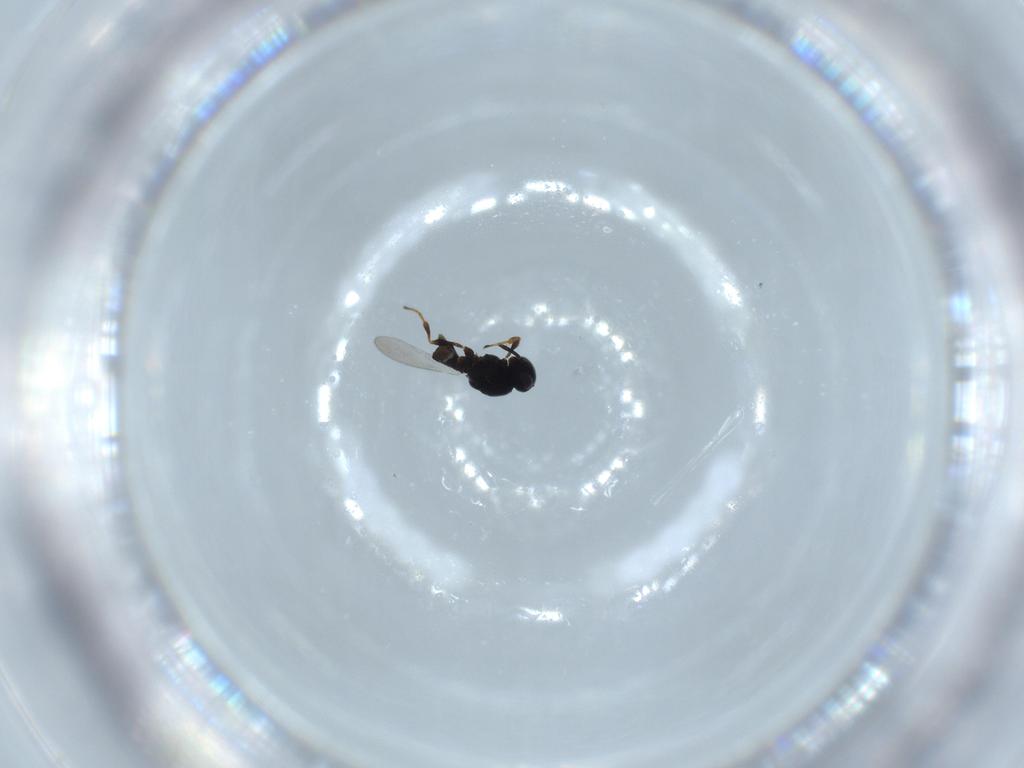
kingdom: Animalia
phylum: Arthropoda
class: Insecta
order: Hymenoptera
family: Platygastridae
